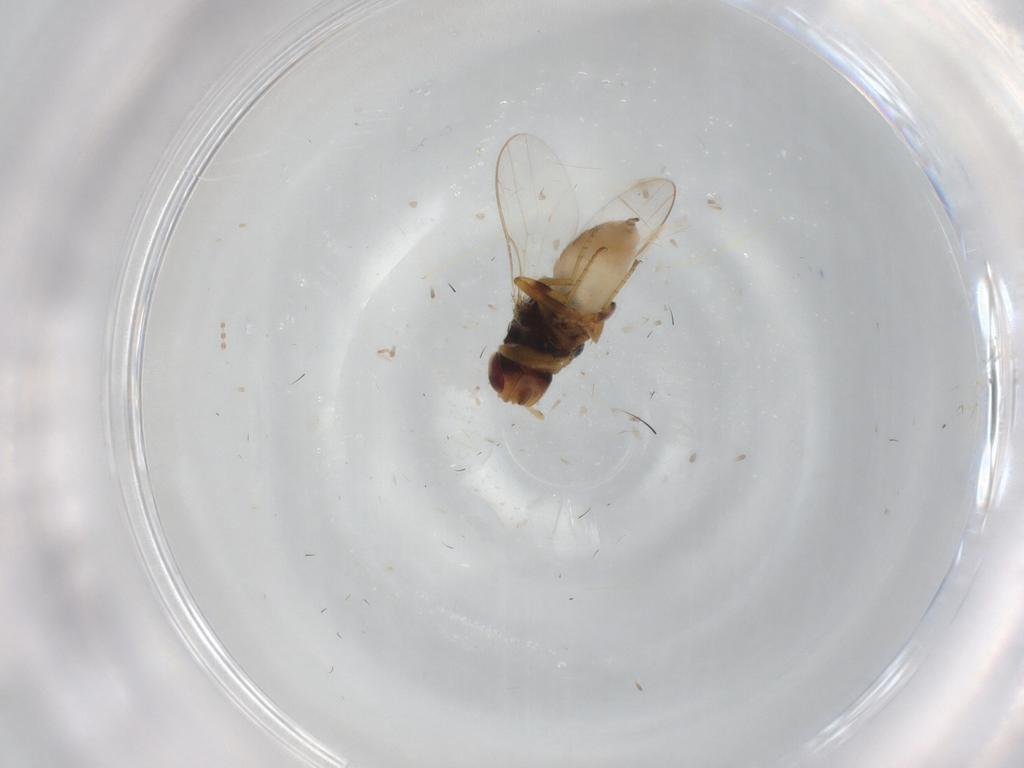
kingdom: Animalia
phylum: Arthropoda
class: Insecta
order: Diptera
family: Chloropidae
